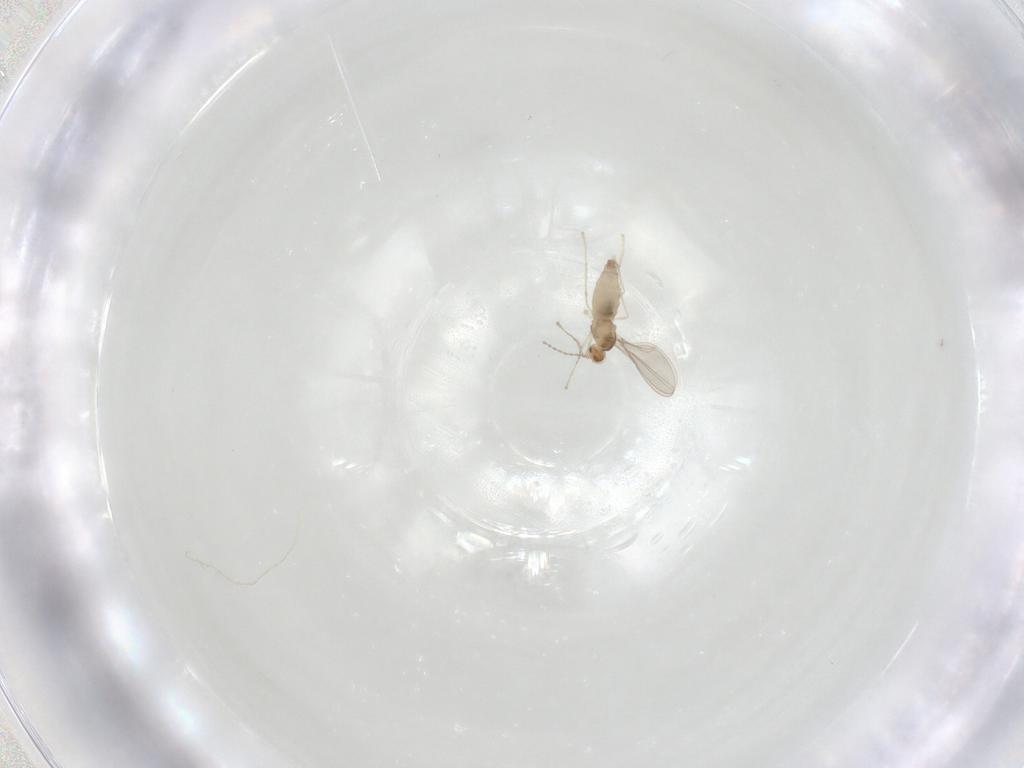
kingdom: Animalia
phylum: Arthropoda
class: Insecta
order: Diptera
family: Cecidomyiidae
